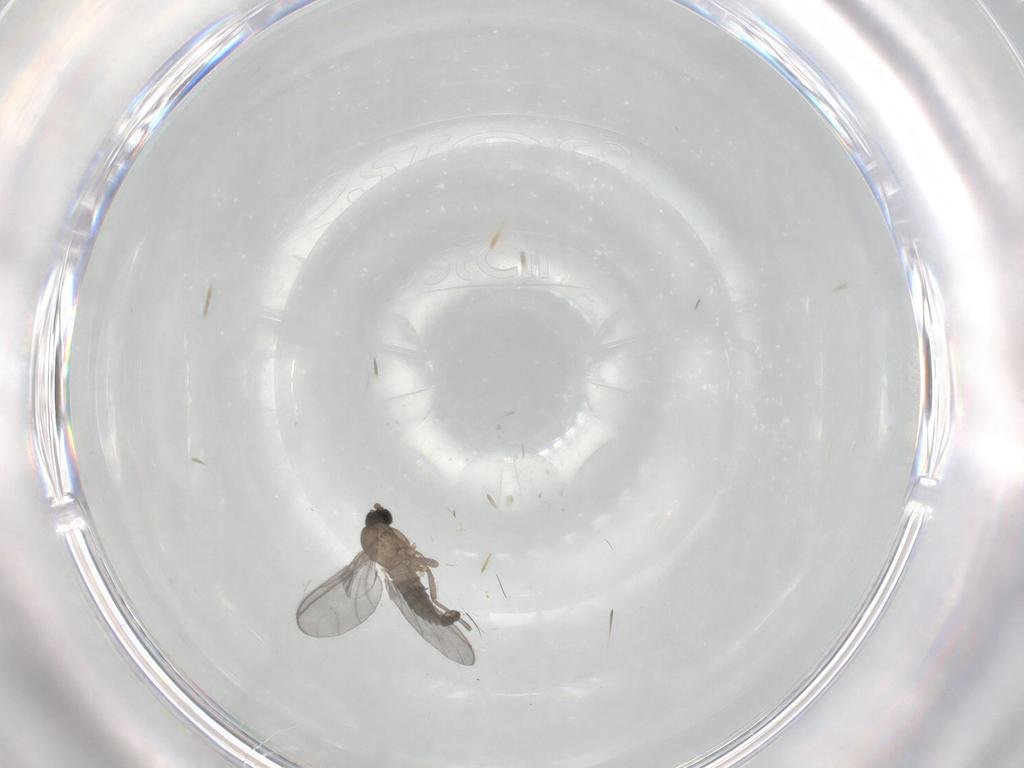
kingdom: Animalia
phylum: Arthropoda
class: Insecta
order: Diptera
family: Sciaridae
